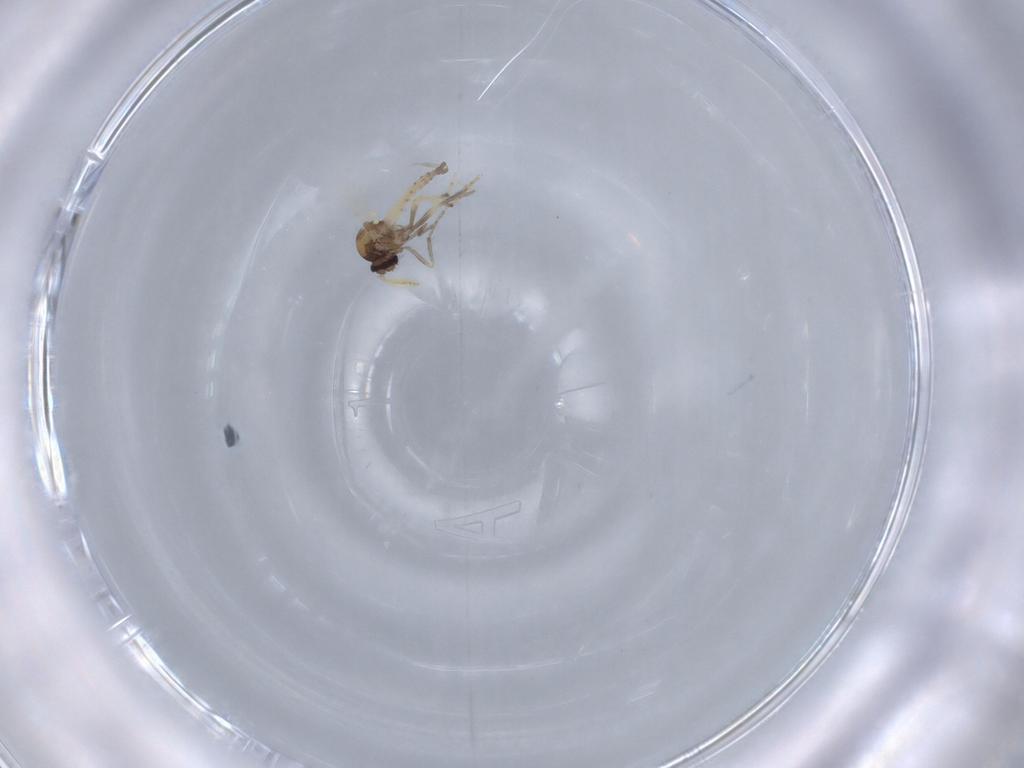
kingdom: Animalia
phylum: Arthropoda
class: Insecta
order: Diptera
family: Ceratopogonidae
